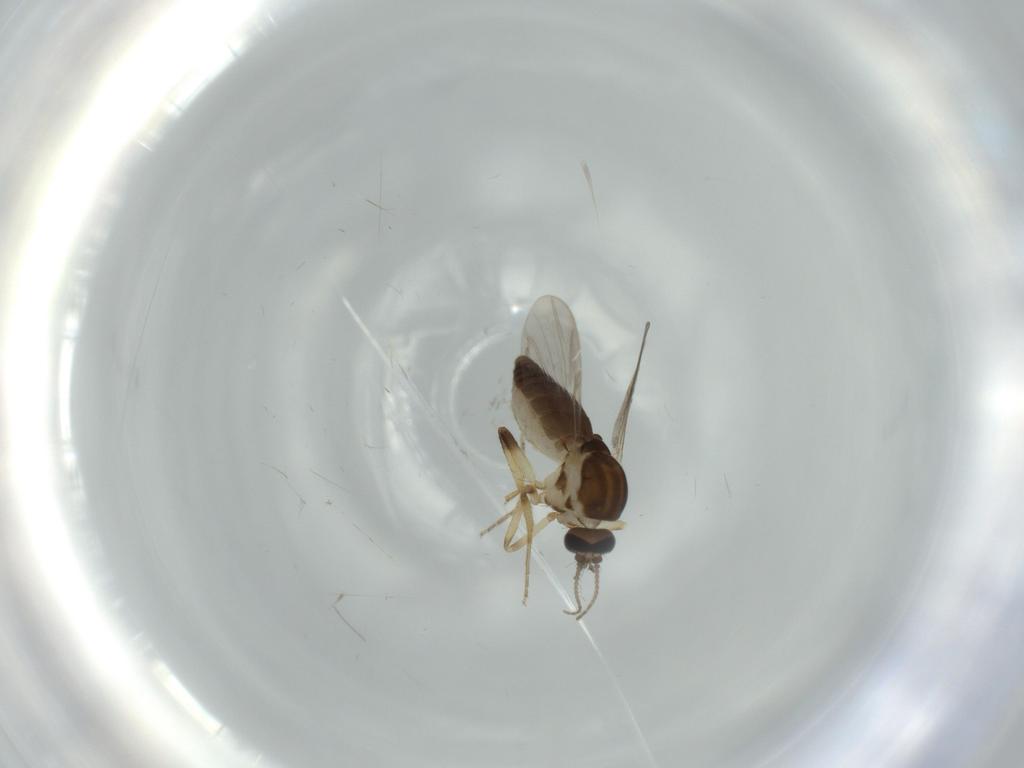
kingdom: Animalia
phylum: Arthropoda
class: Insecta
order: Diptera
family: Ceratopogonidae
